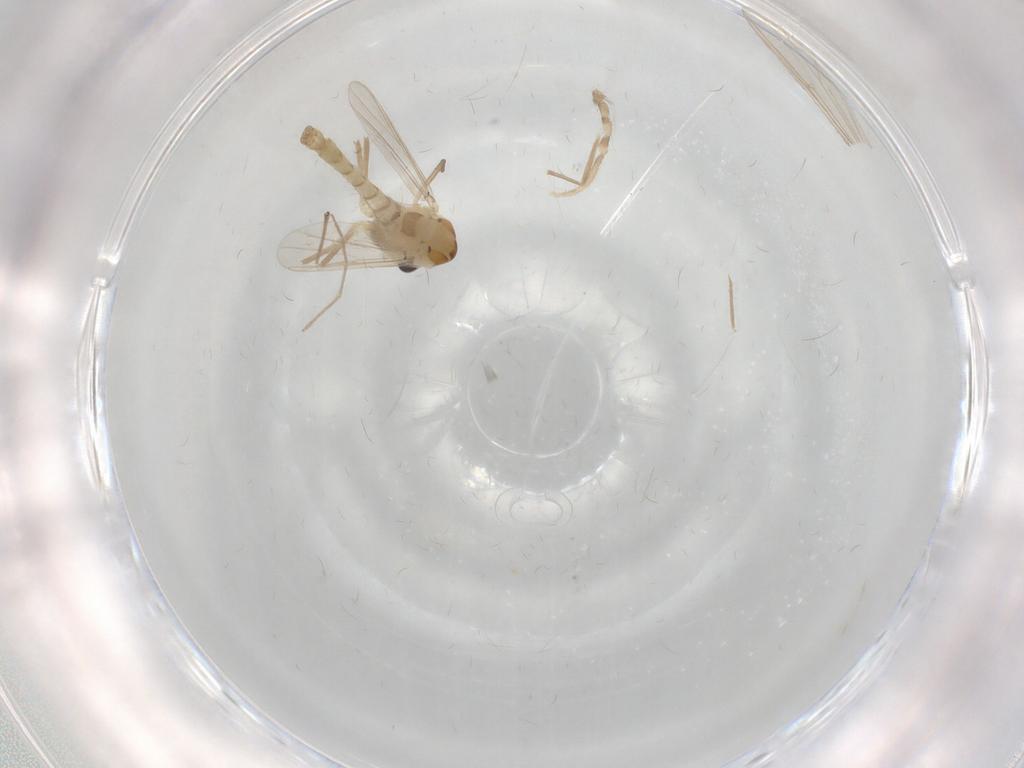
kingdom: Animalia
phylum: Arthropoda
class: Insecta
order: Diptera
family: Chironomidae
